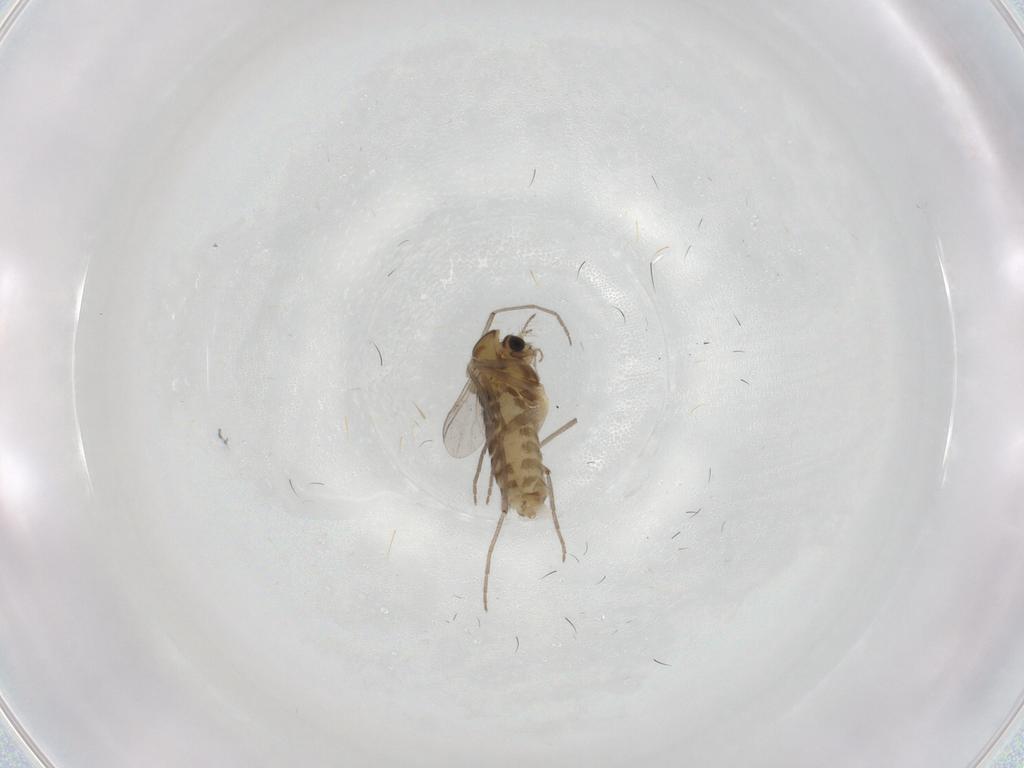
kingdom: Animalia
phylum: Arthropoda
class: Insecta
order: Diptera
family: Chironomidae
